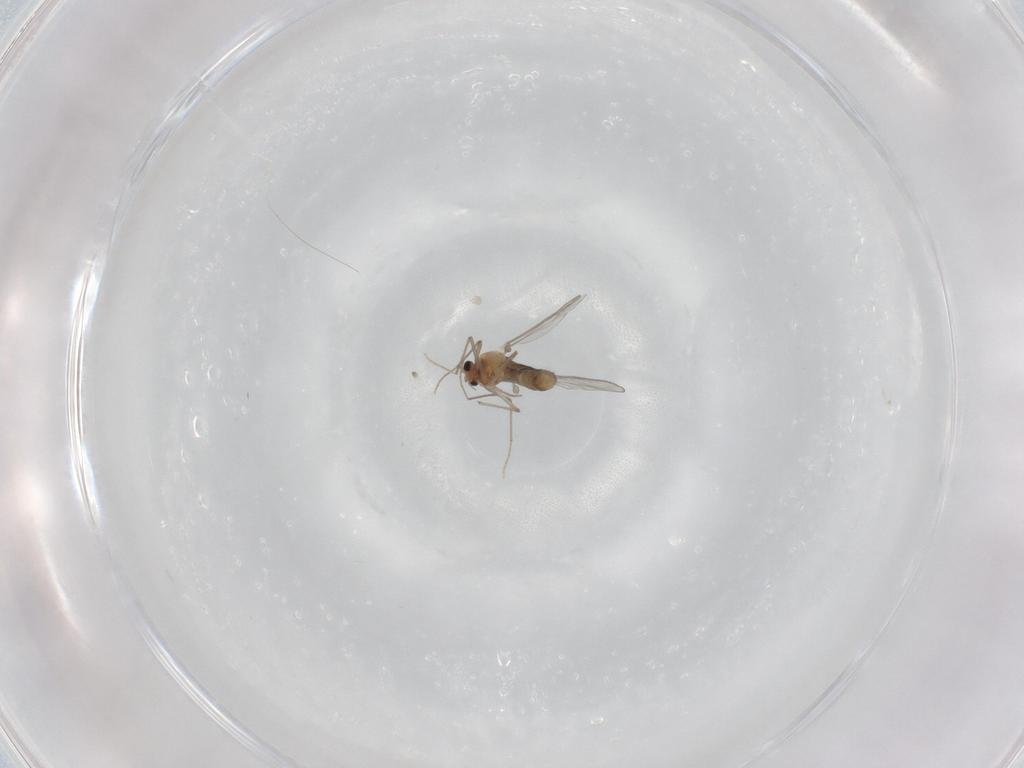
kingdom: Animalia
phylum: Arthropoda
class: Insecta
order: Diptera
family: Chironomidae
